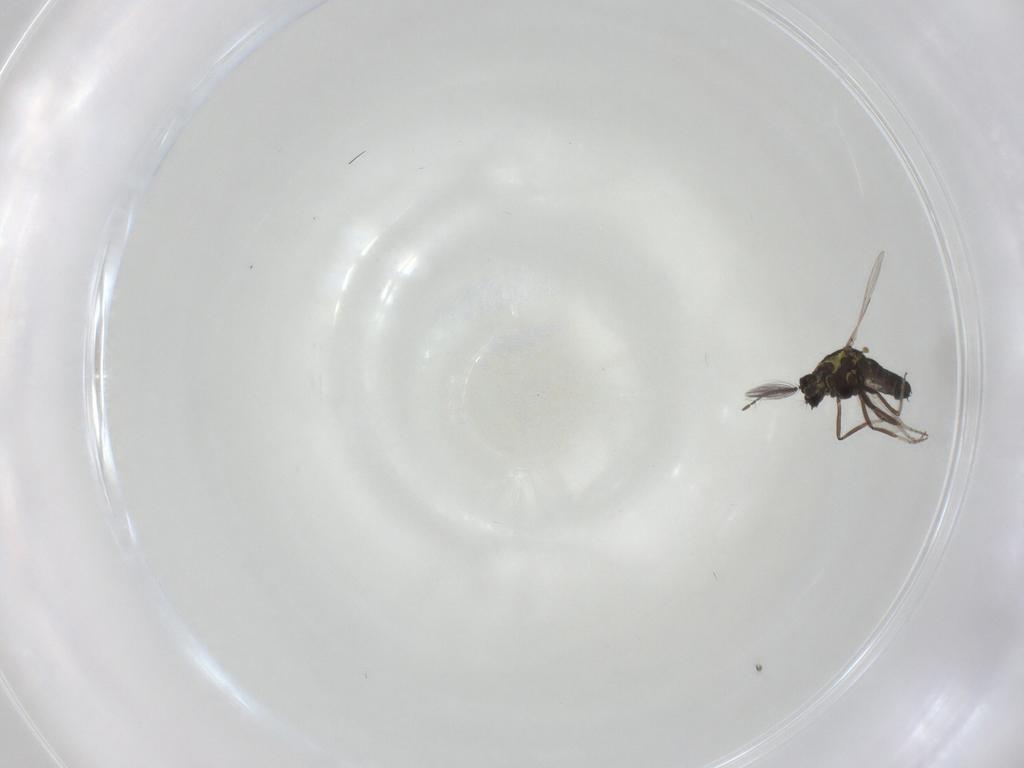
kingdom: Animalia
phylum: Arthropoda
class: Insecta
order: Diptera
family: Ceratopogonidae
